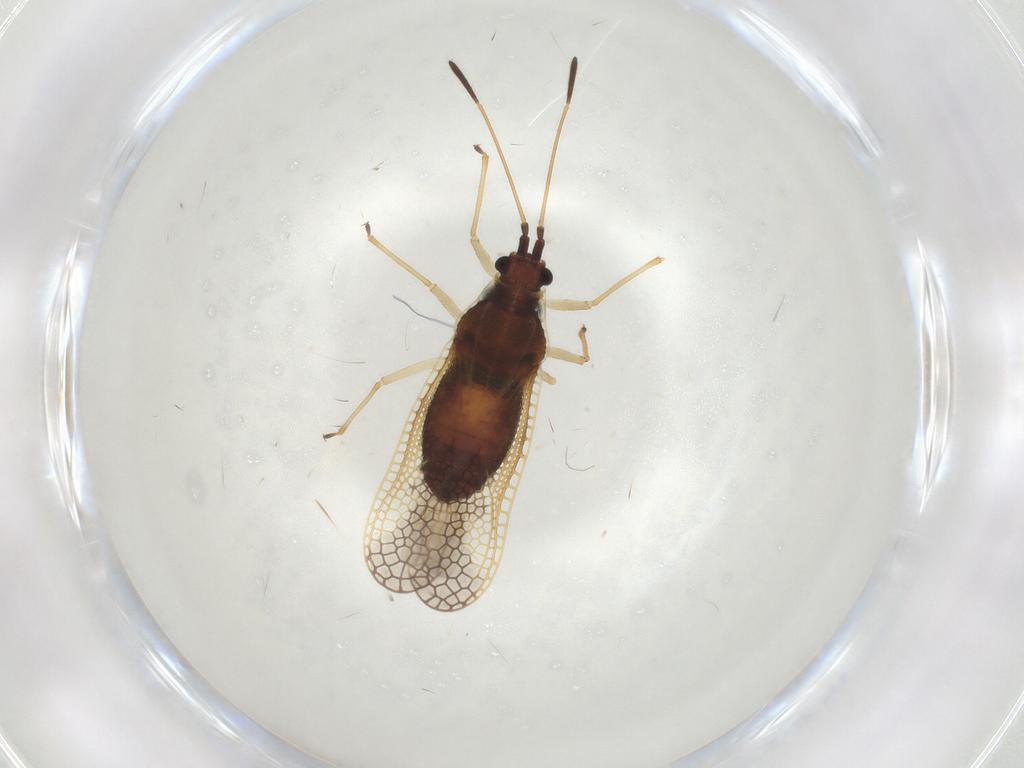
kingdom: Animalia
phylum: Arthropoda
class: Insecta
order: Hemiptera
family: Tingidae
